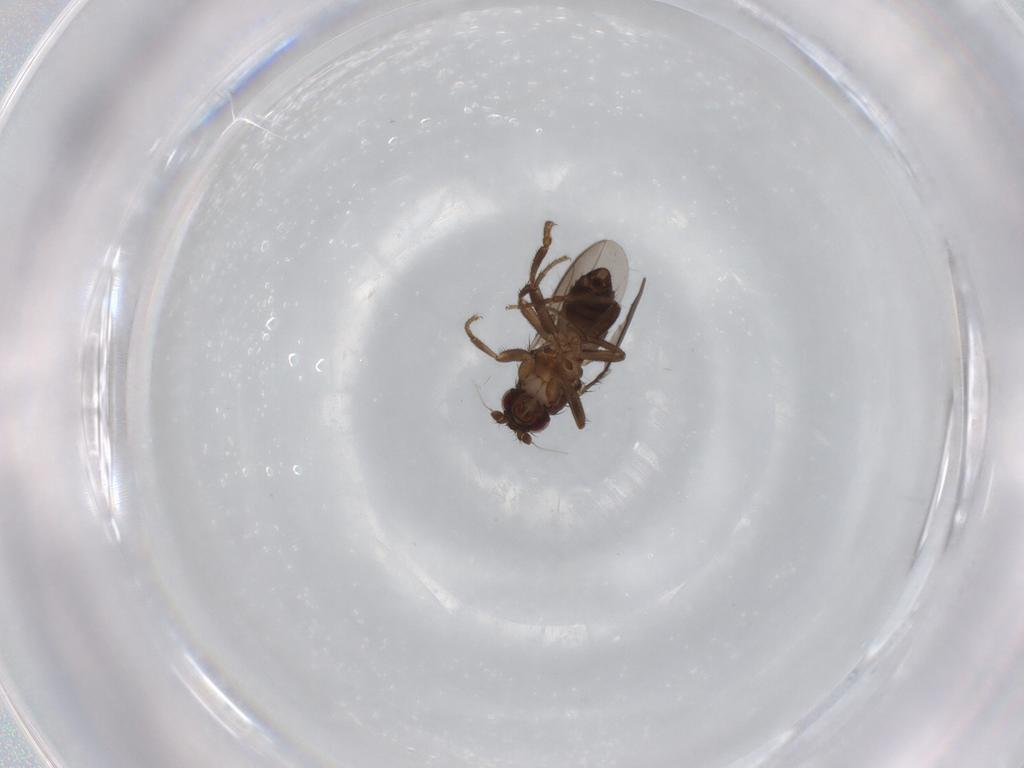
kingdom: Animalia
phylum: Arthropoda
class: Insecta
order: Diptera
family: Sphaeroceridae
